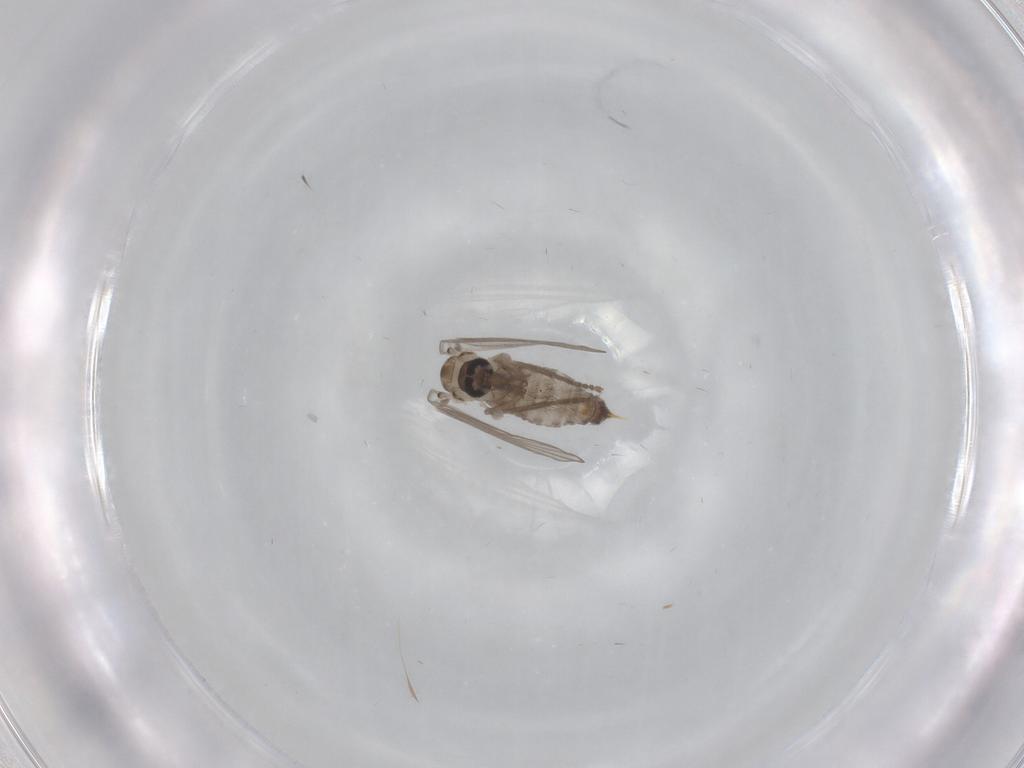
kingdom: Animalia
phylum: Arthropoda
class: Insecta
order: Diptera
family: Psychodidae
